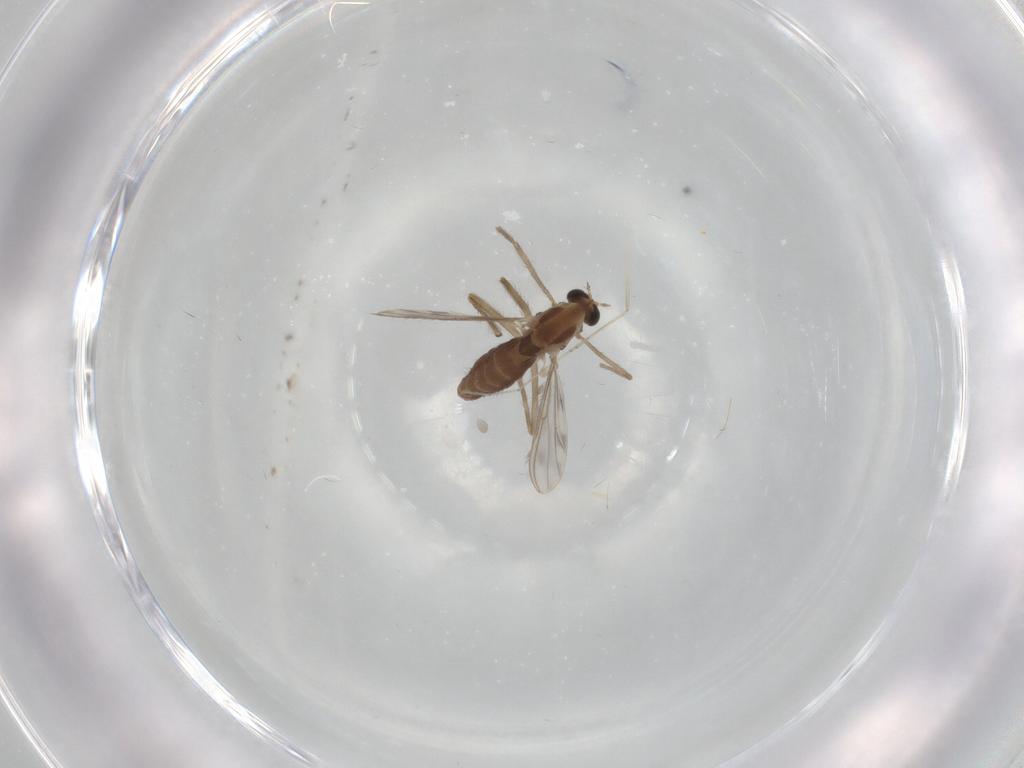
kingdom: Animalia
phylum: Arthropoda
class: Insecta
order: Diptera
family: Chironomidae
